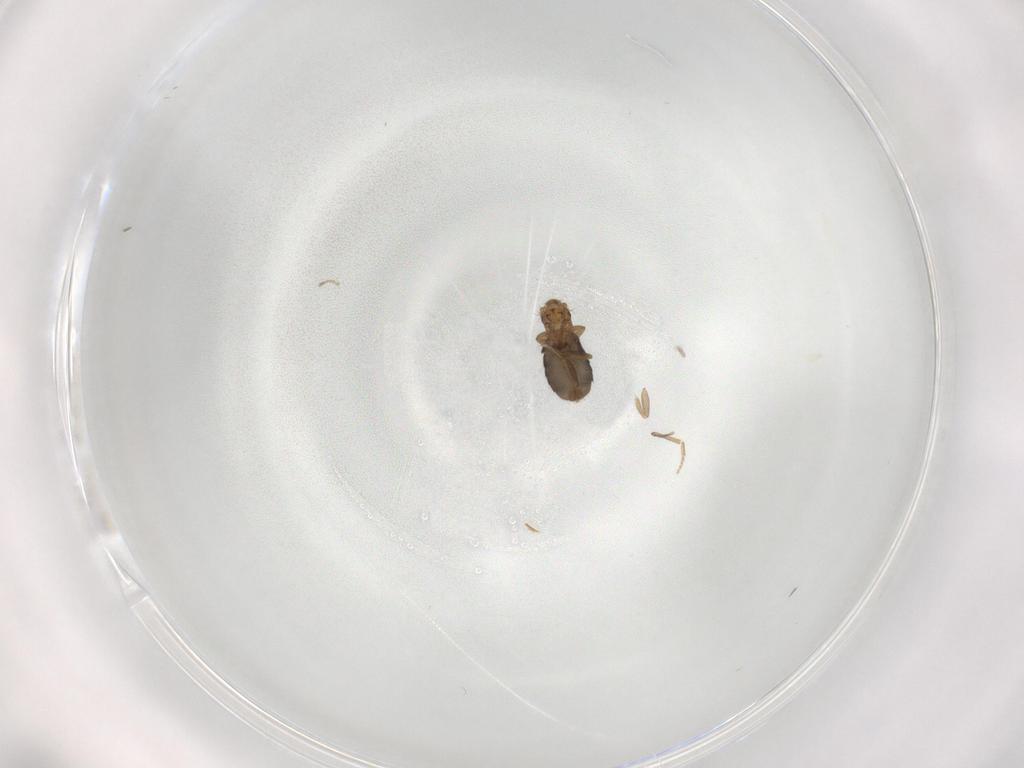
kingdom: Animalia
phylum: Arthropoda
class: Insecta
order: Diptera
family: Phoridae
